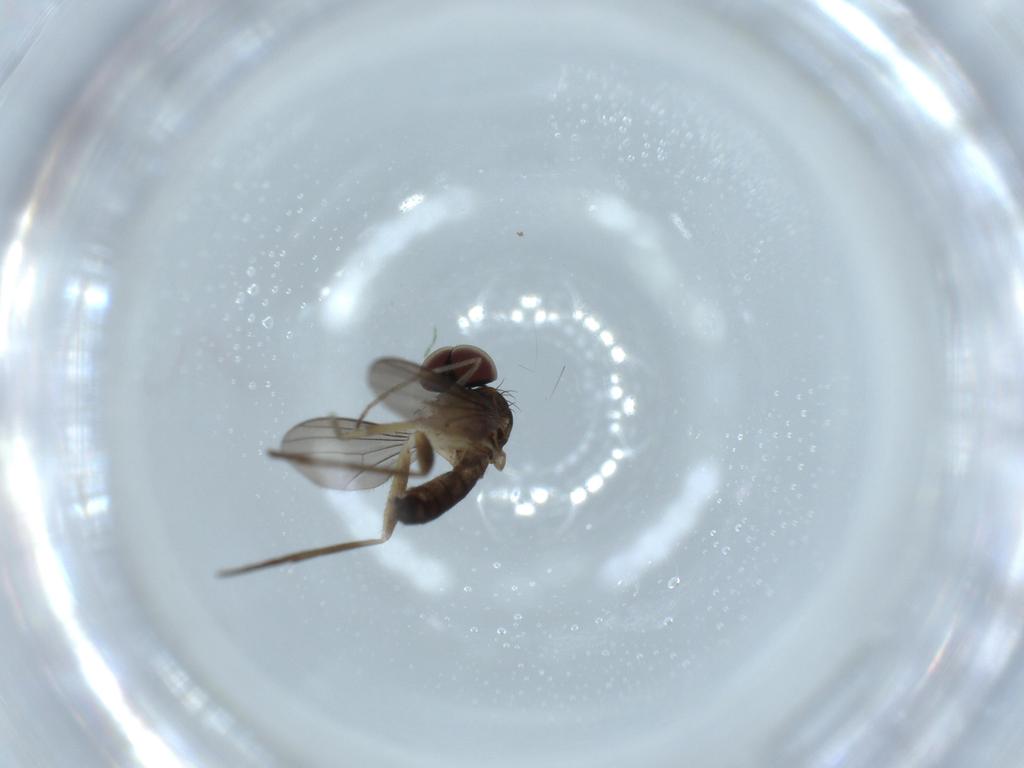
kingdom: Animalia
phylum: Arthropoda
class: Insecta
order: Diptera
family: Dolichopodidae
